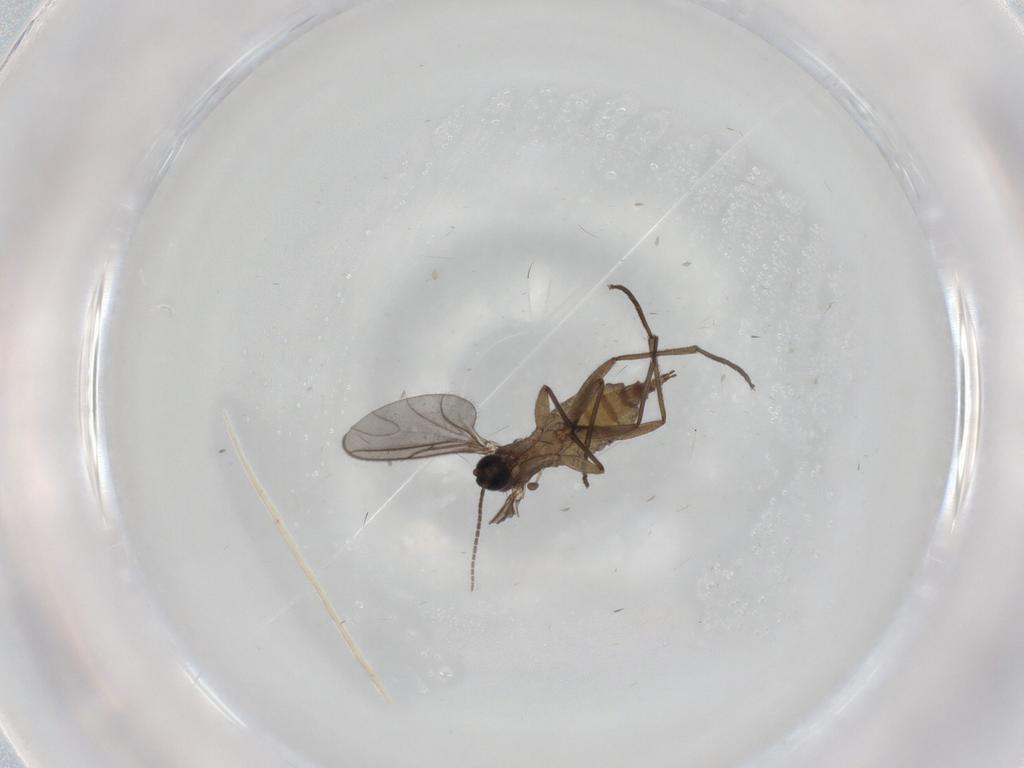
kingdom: Animalia
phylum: Arthropoda
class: Insecta
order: Diptera
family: Sciaridae
